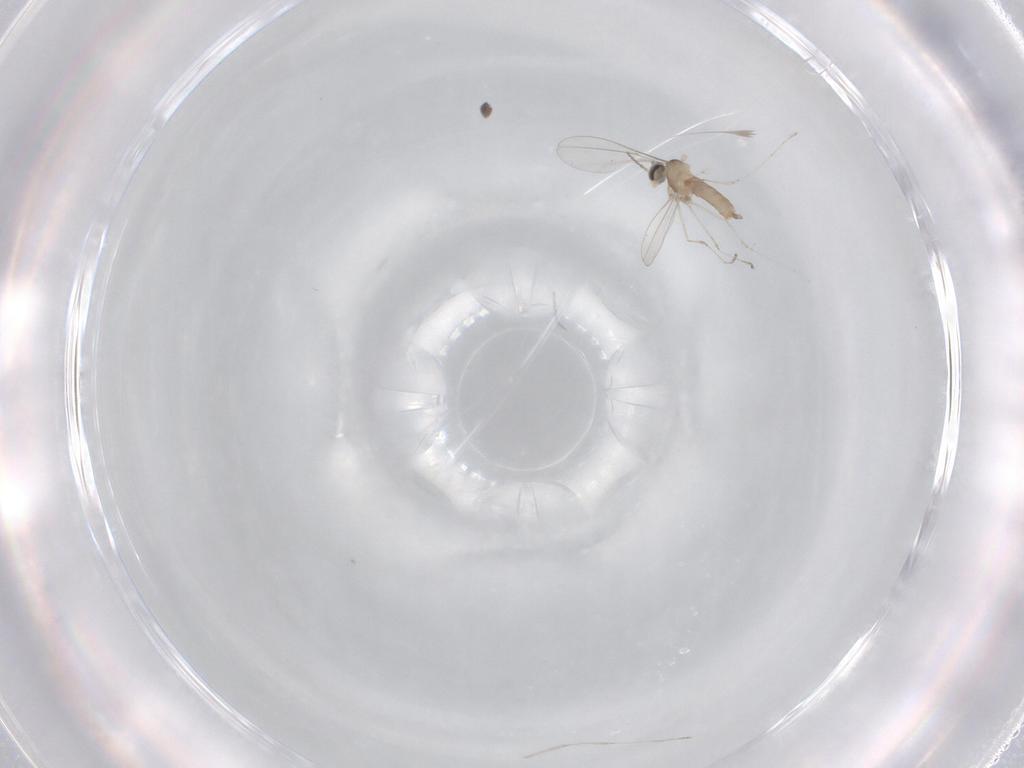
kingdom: Animalia
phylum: Arthropoda
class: Insecta
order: Diptera
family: Cecidomyiidae
